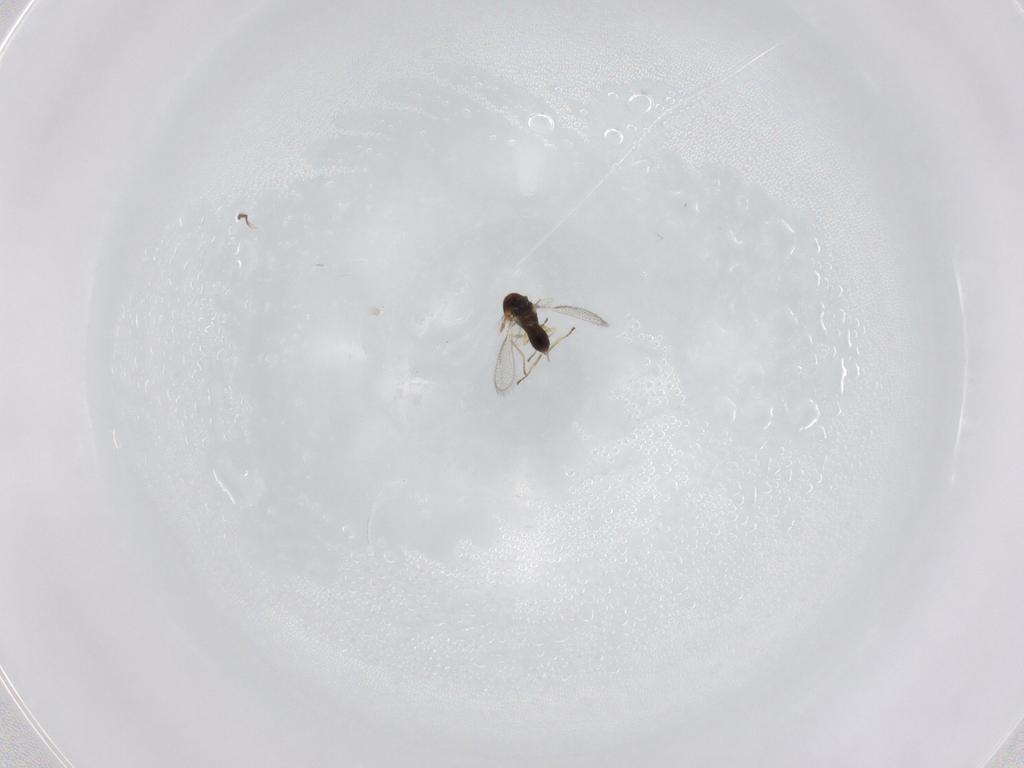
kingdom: Animalia
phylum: Arthropoda
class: Insecta
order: Hymenoptera
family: Eulophidae
